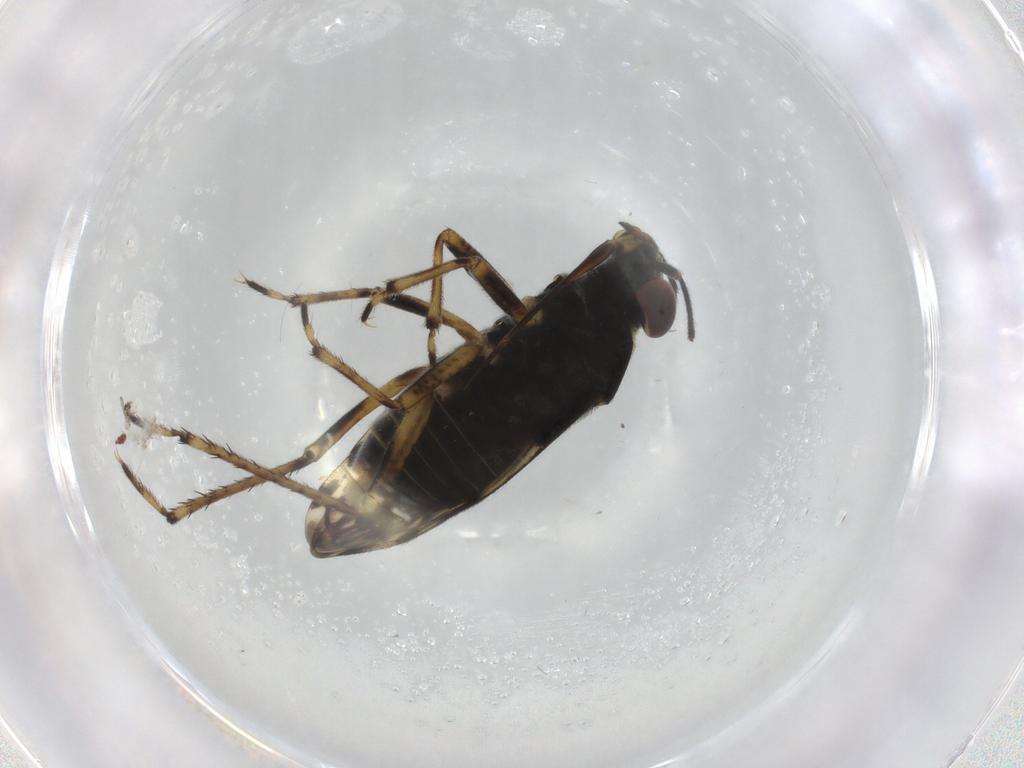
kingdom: Animalia
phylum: Arthropoda
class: Insecta
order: Hemiptera
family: Saldidae
